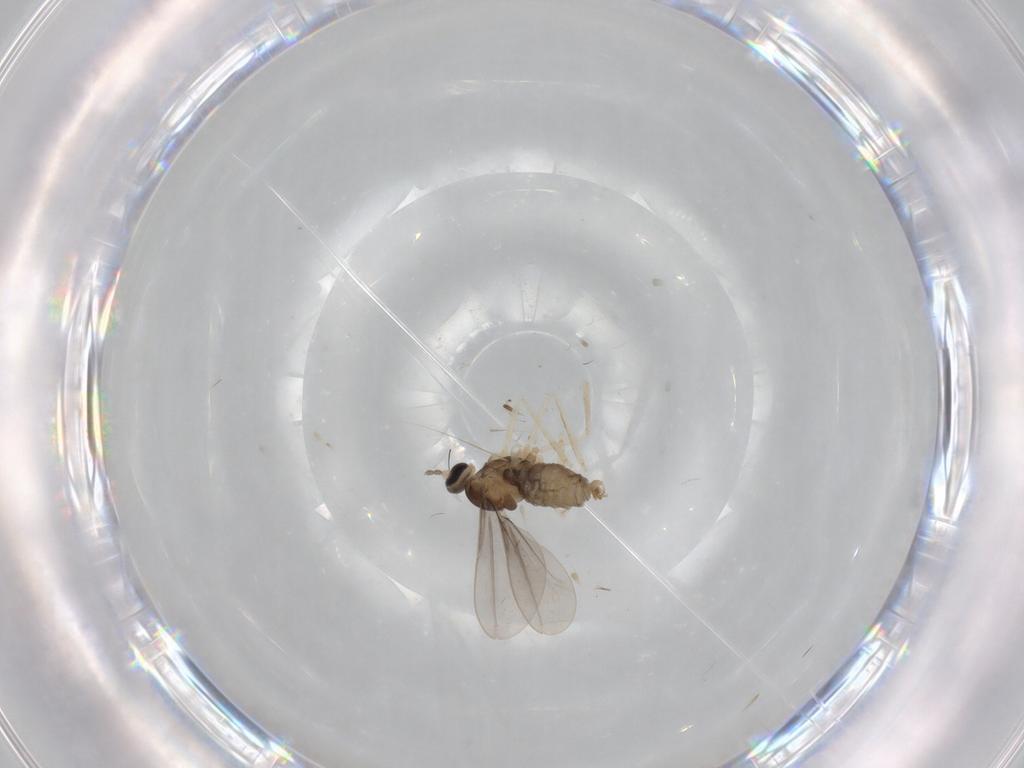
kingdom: Animalia
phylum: Arthropoda
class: Insecta
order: Diptera
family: Cecidomyiidae
